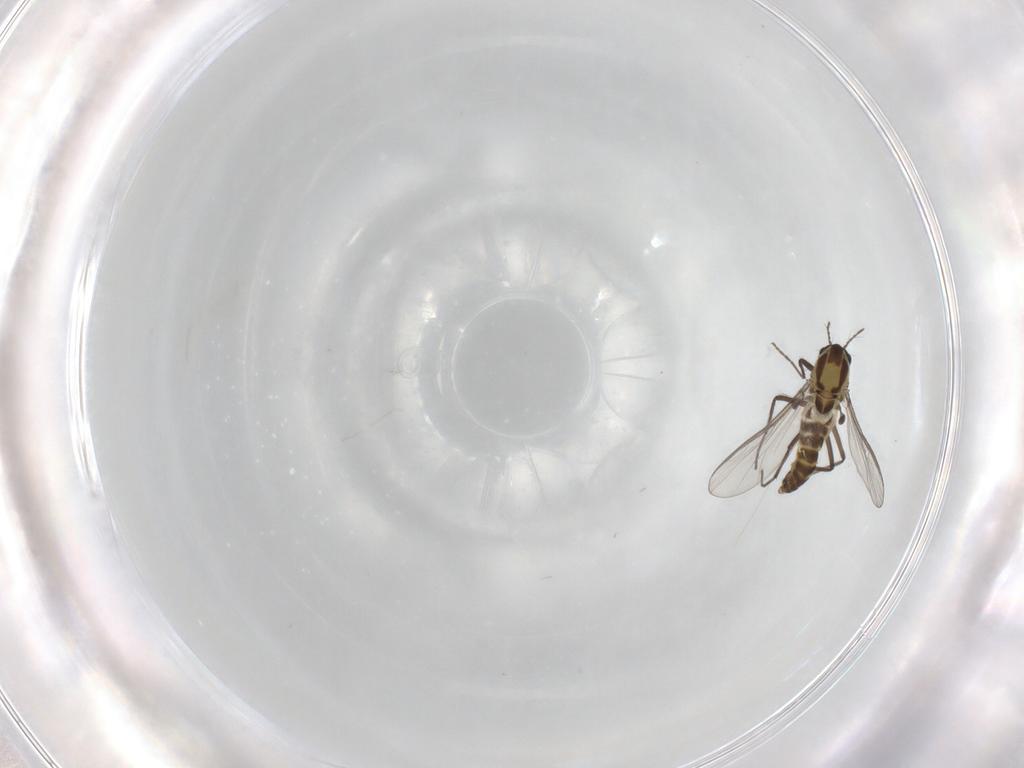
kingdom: Animalia
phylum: Arthropoda
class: Insecta
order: Diptera
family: Chironomidae
